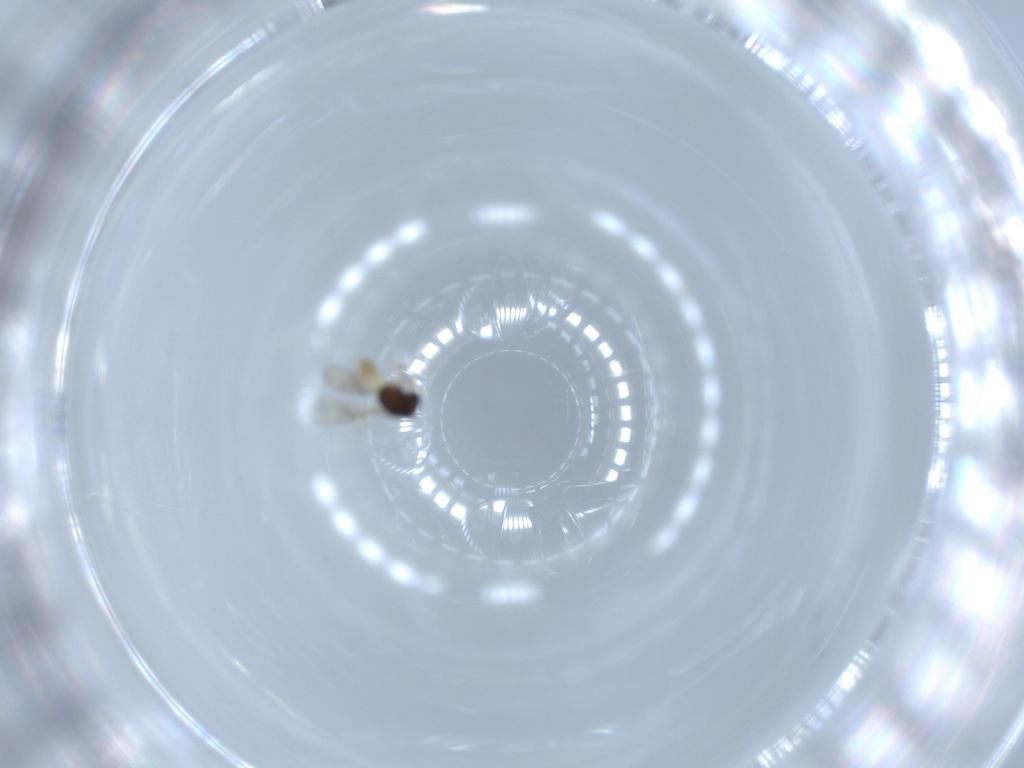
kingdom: Animalia
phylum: Arthropoda
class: Insecta
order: Hymenoptera
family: Scelionidae
